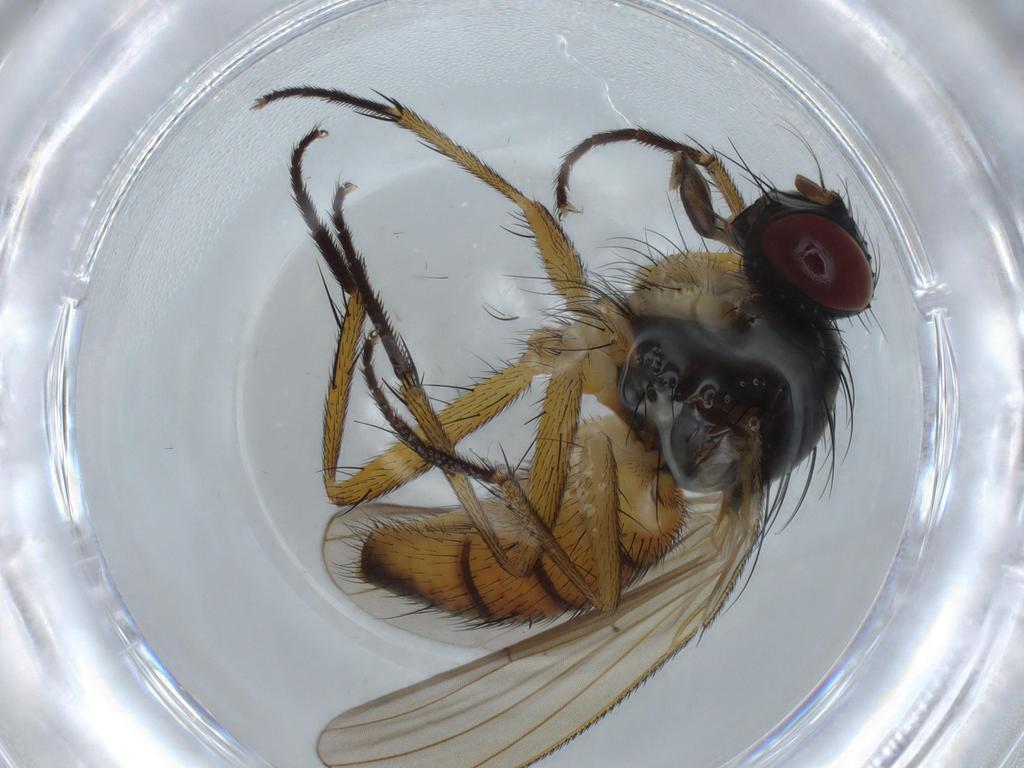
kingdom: Animalia
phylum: Arthropoda
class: Insecta
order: Diptera
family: Muscidae
